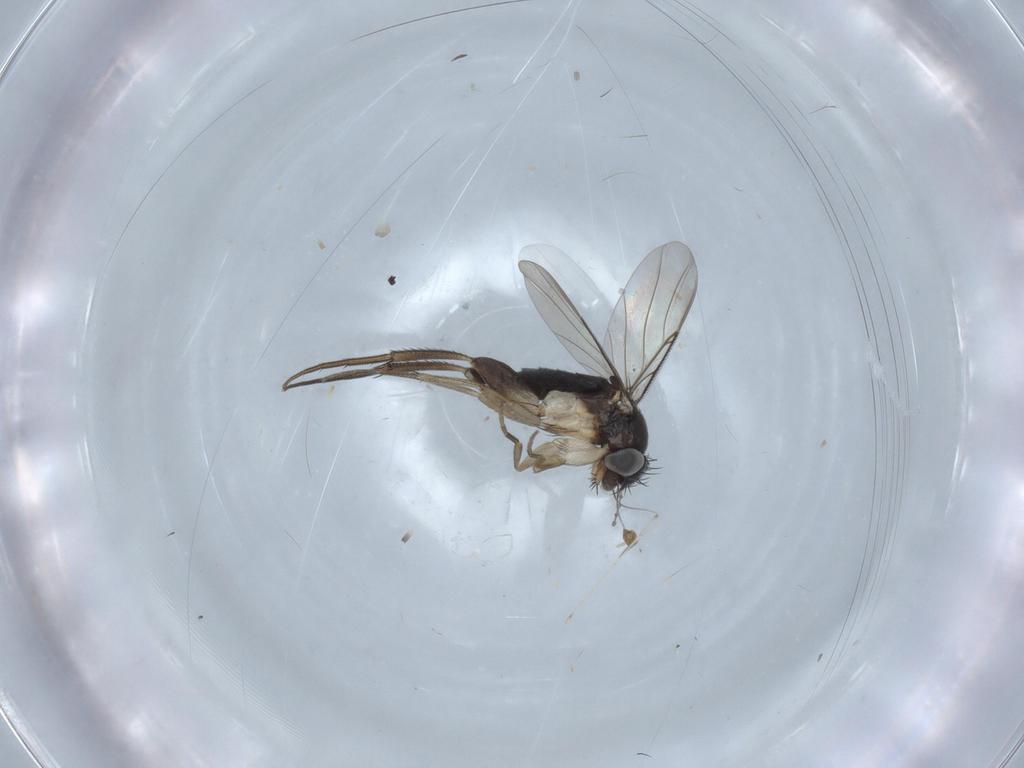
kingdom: Animalia
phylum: Arthropoda
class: Insecta
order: Diptera
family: Phoridae
